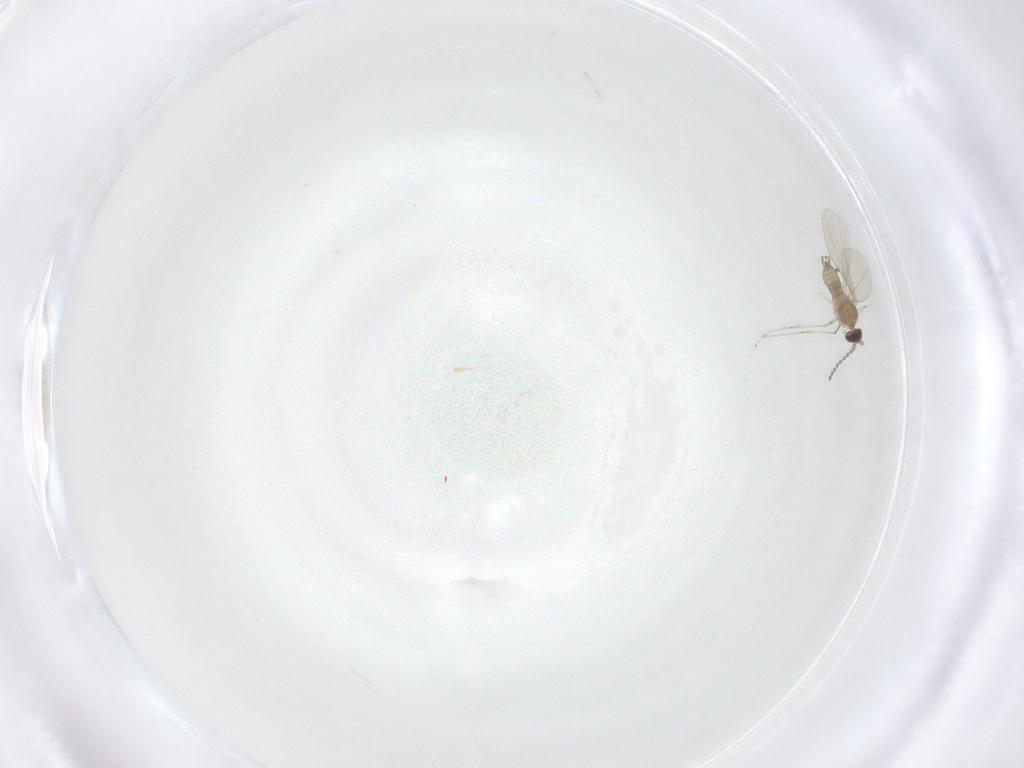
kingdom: Animalia
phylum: Arthropoda
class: Insecta
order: Diptera
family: Cecidomyiidae
